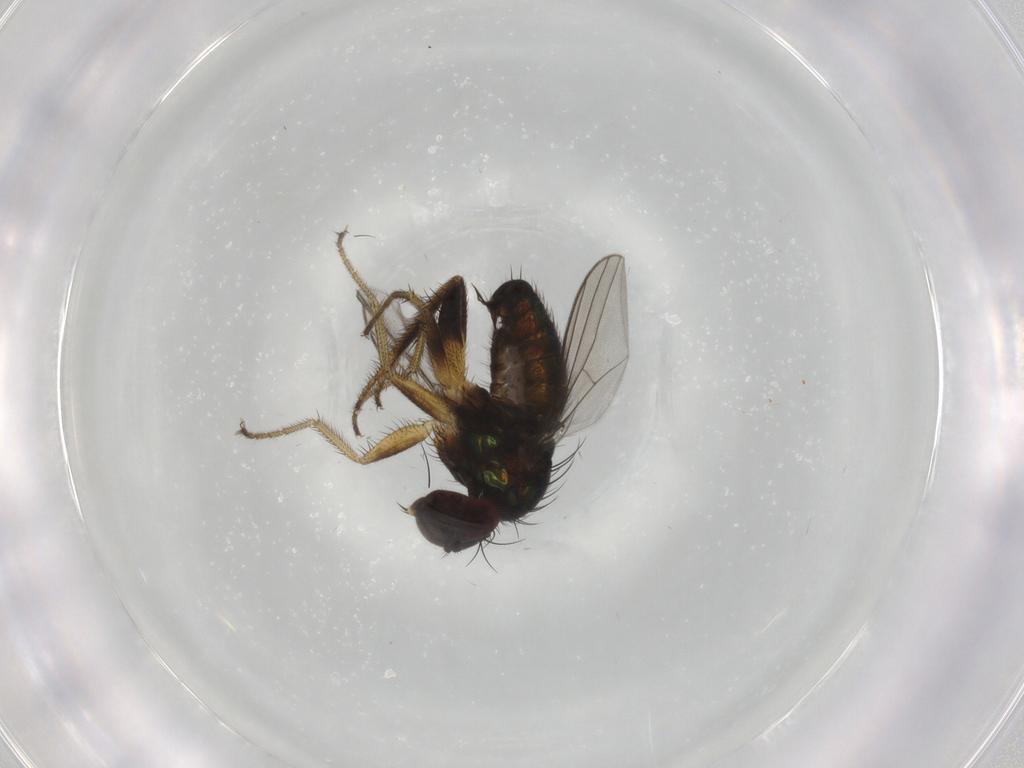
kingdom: Animalia
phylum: Arthropoda
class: Insecta
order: Diptera
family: Dolichopodidae
